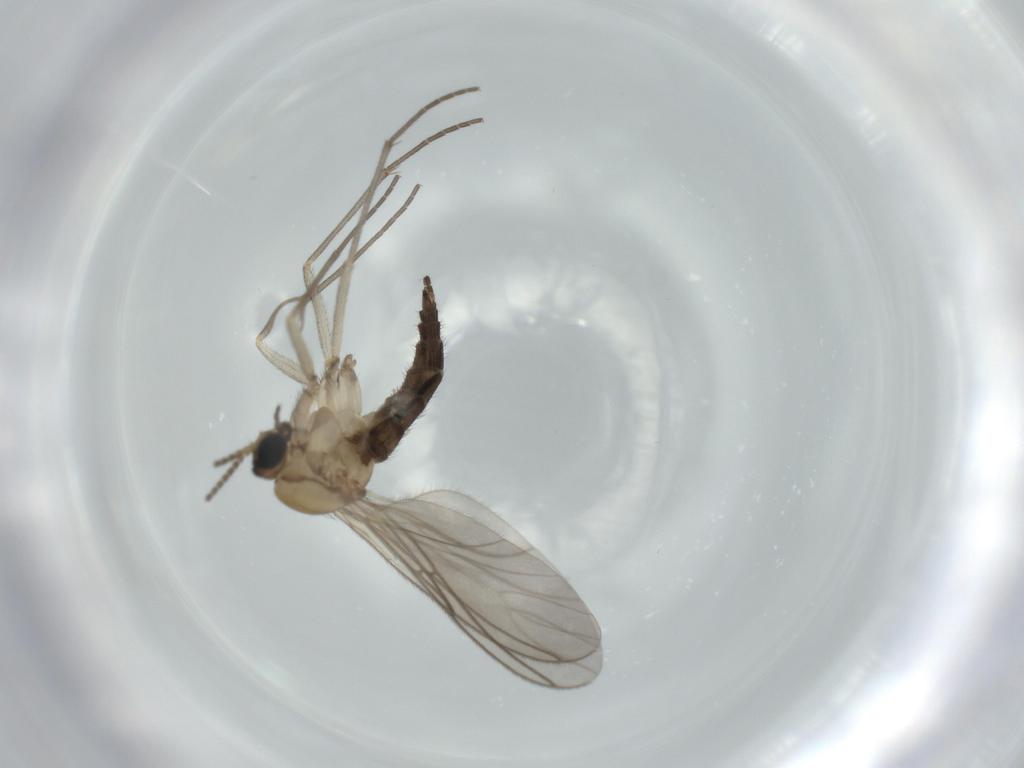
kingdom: Animalia
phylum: Arthropoda
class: Insecta
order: Diptera
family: Sciaridae
